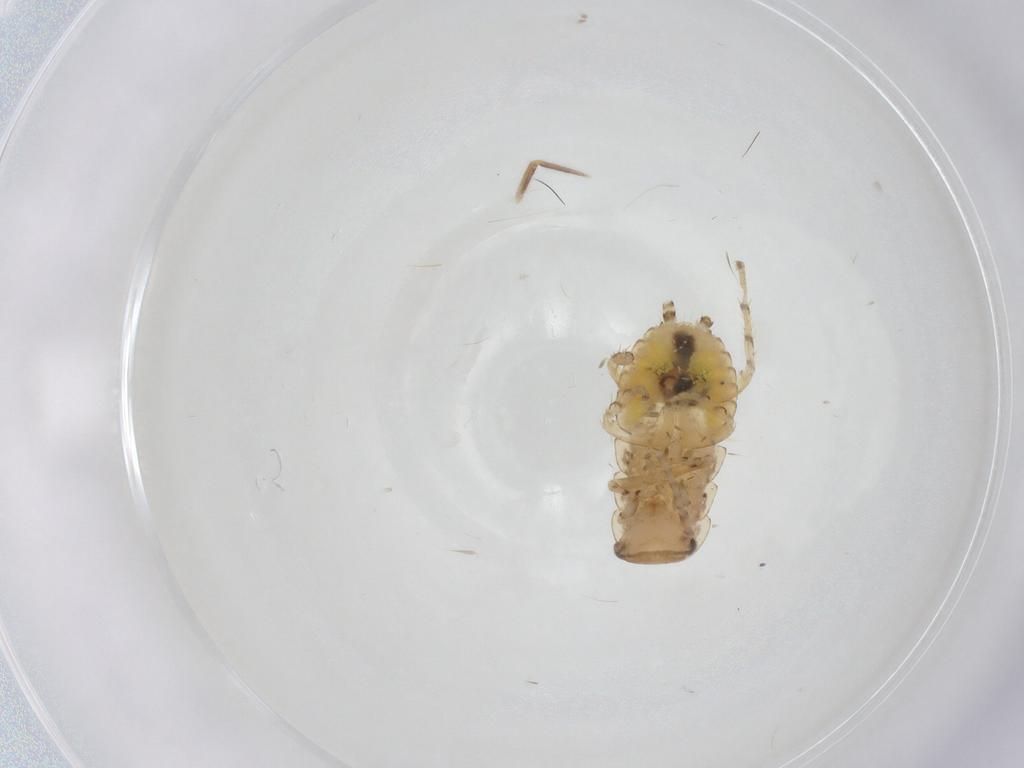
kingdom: Animalia
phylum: Arthropoda
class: Insecta
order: Blattodea
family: Ectobiidae
